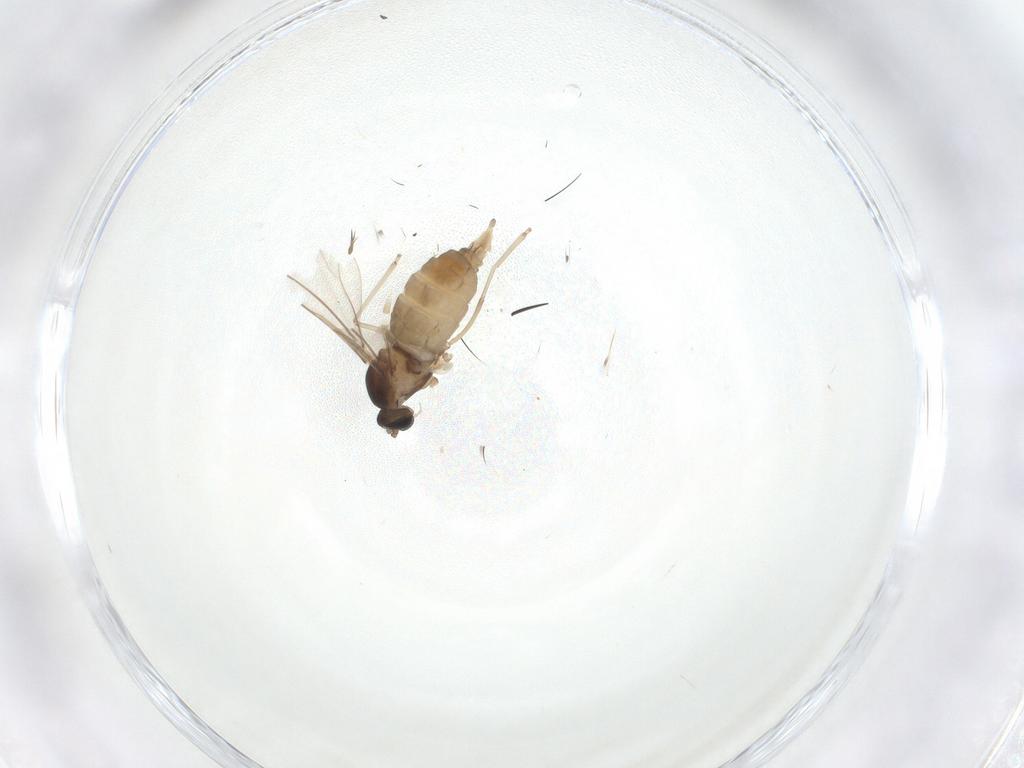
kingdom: Animalia
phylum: Arthropoda
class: Insecta
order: Diptera
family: Cecidomyiidae
